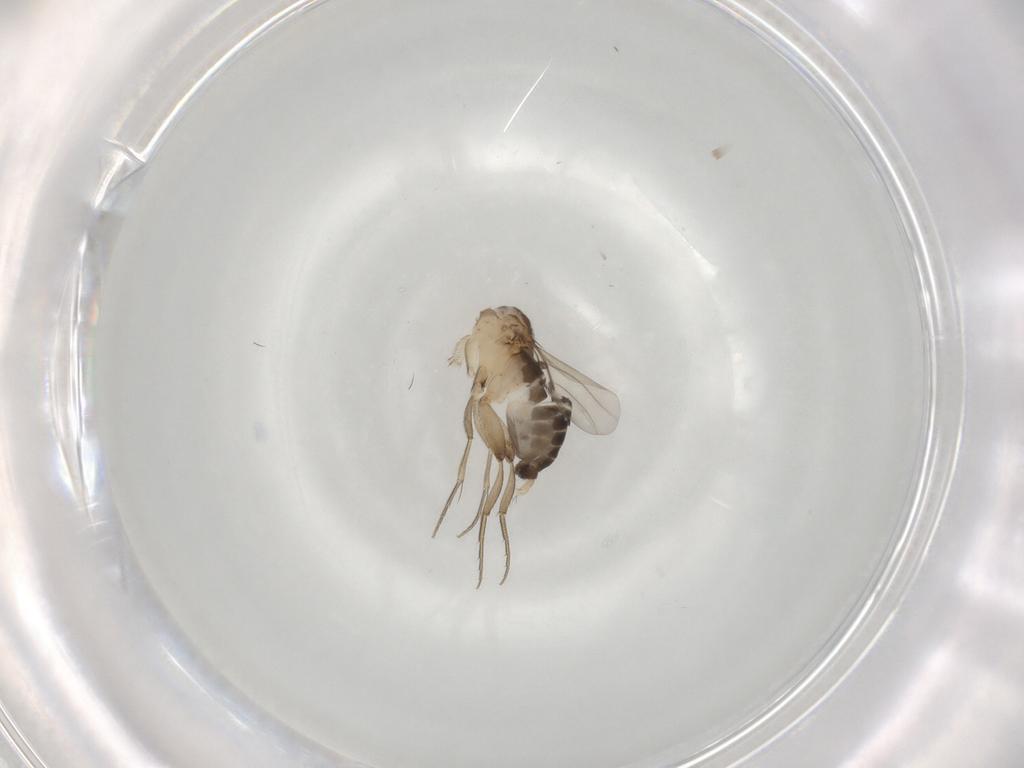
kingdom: Animalia
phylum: Arthropoda
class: Insecta
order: Diptera
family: Phoridae
